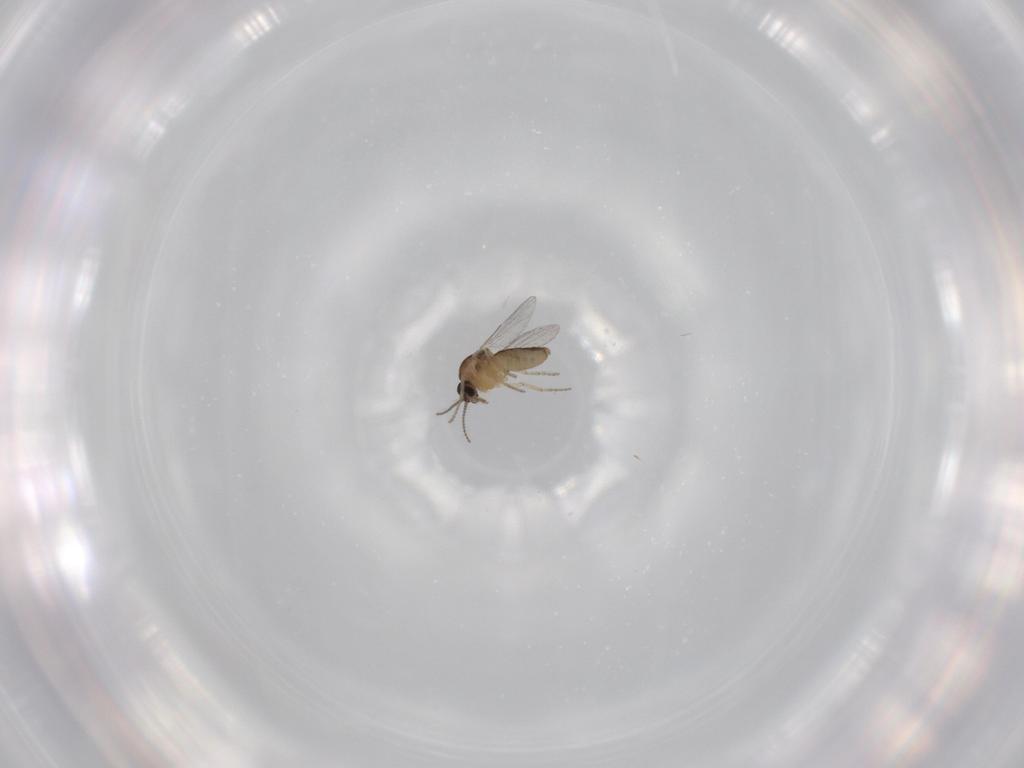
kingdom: Animalia
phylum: Arthropoda
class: Insecta
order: Diptera
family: Ceratopogonidae
